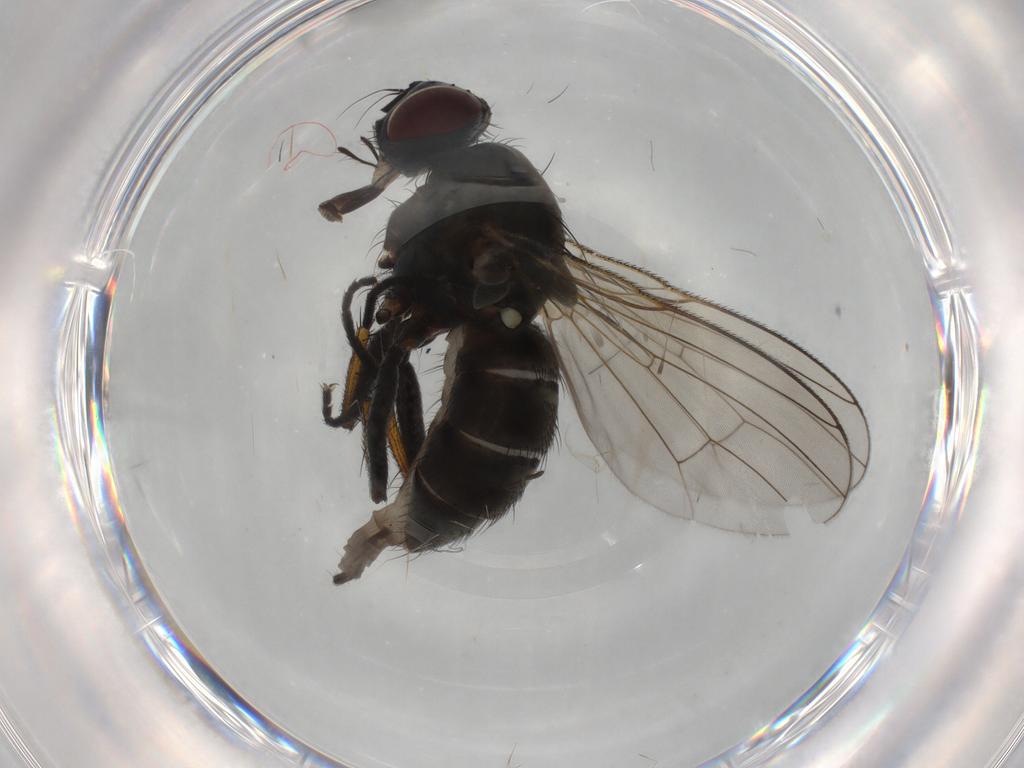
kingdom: Animalia
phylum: Arthropoda
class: Insecta
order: Diptera
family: Muscidae
